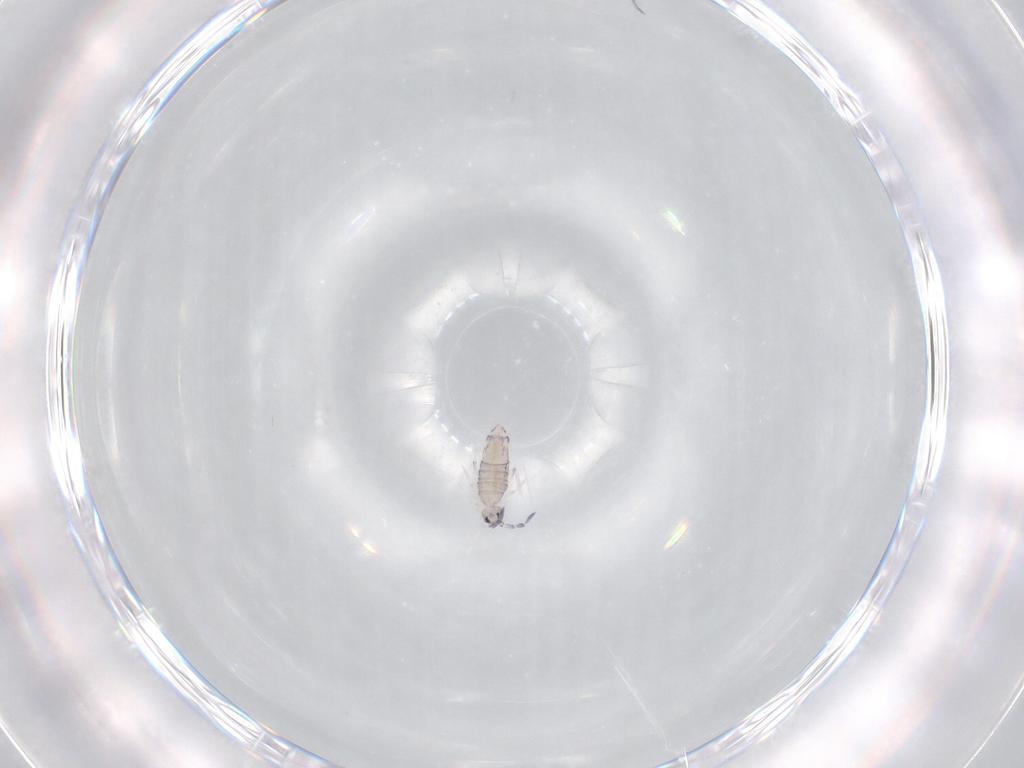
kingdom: Animalia
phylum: Arthropoda
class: Collembola
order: Entomobryomorpha
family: Entomobryidae
